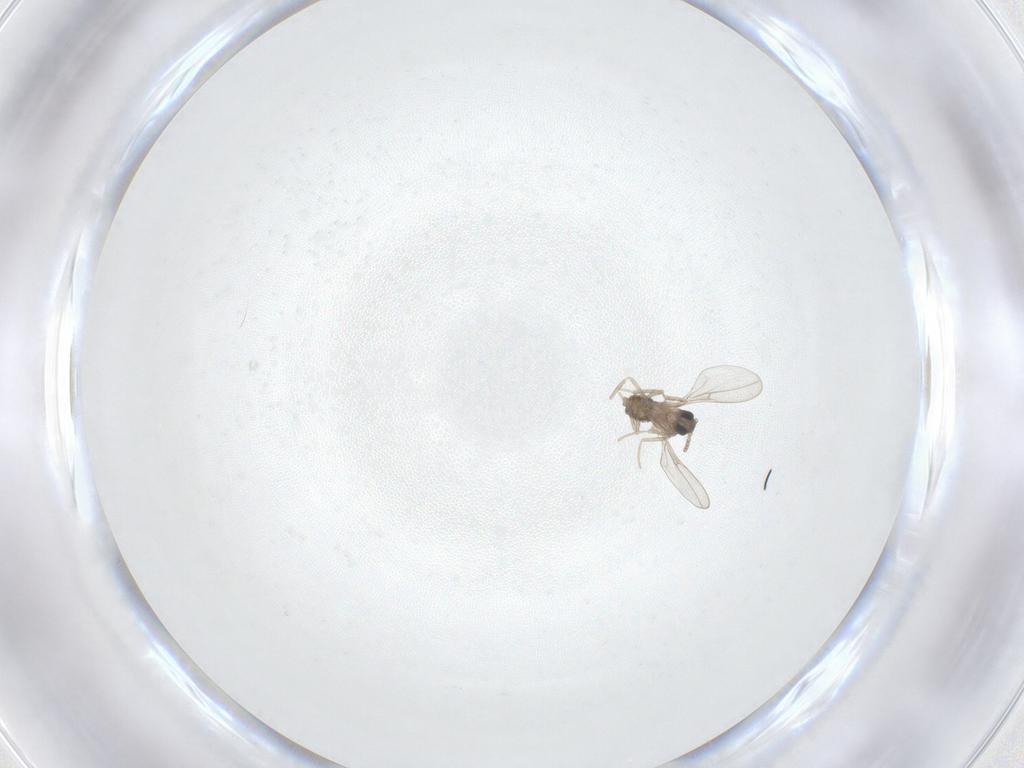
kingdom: Animalia
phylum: Arthropoda
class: Insecta
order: Diptera
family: Cecidomyiidae
